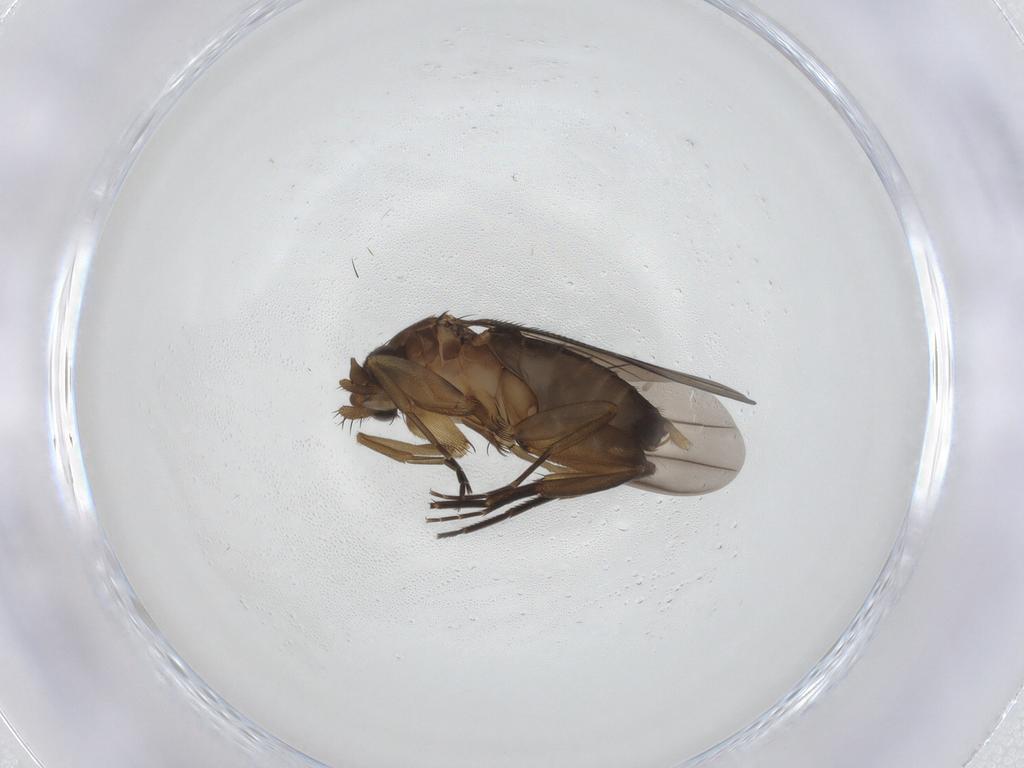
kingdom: Animalia
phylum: Arthropoda
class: Insecta
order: Diptera
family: Phoridae
